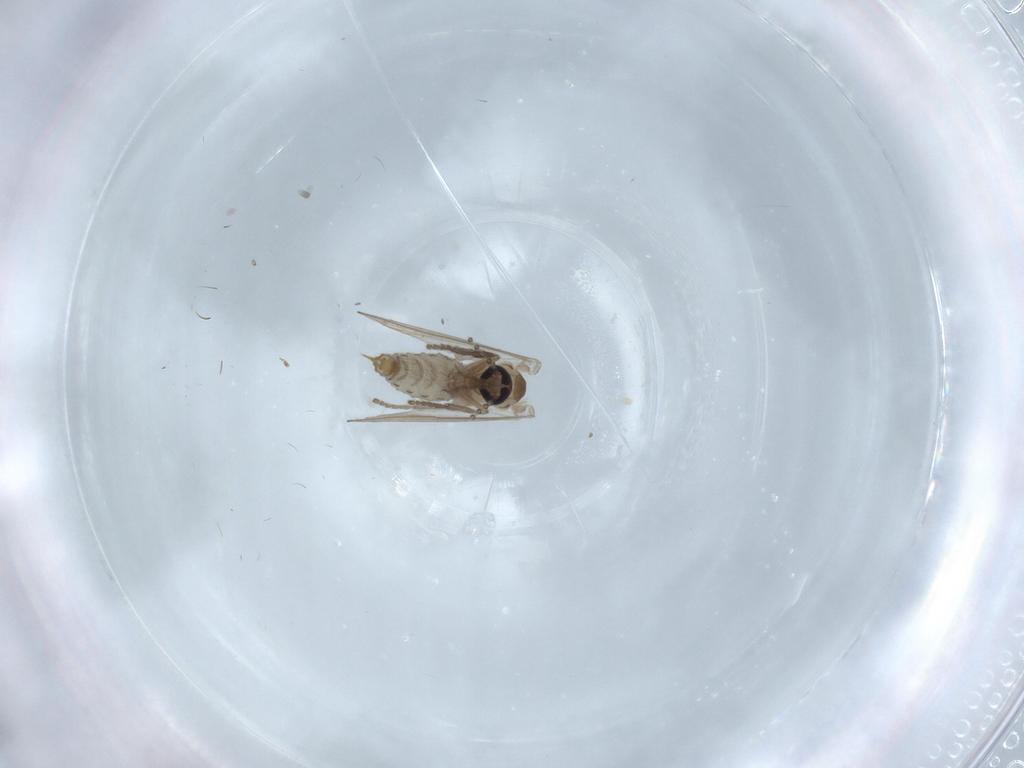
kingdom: Animalia
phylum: Arthropoda
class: Insecta
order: Diptera
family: Psychodidae
